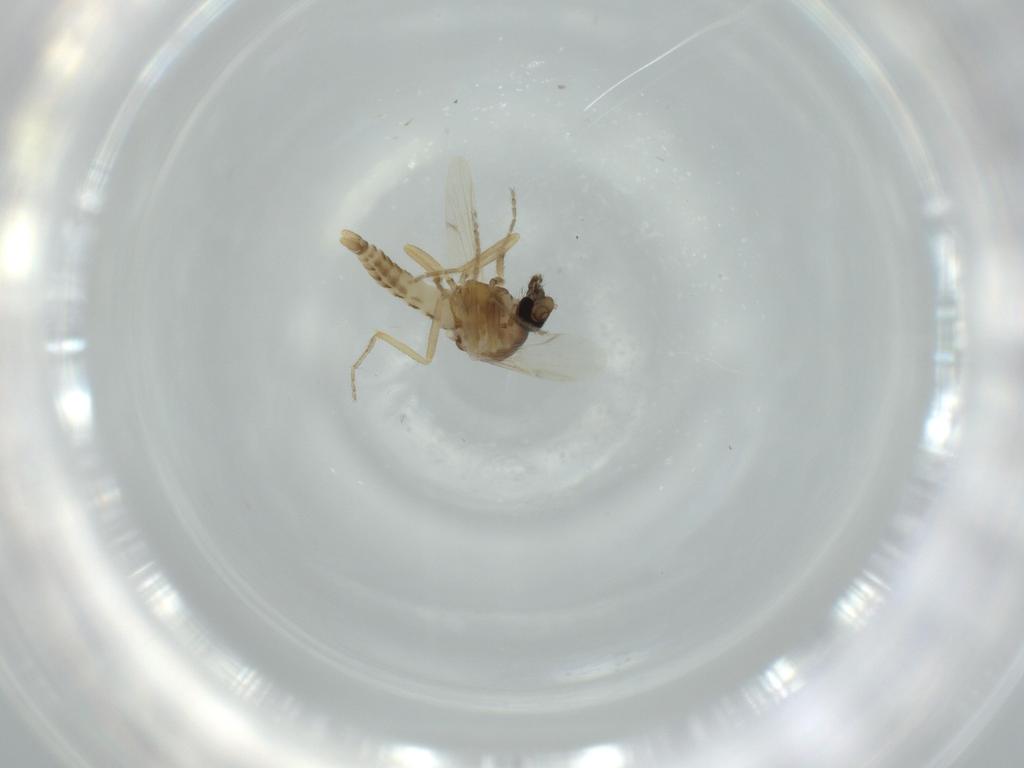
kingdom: Animalia
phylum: Arthropoda
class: Insecta
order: Diptera
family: Ceratopogonidae
